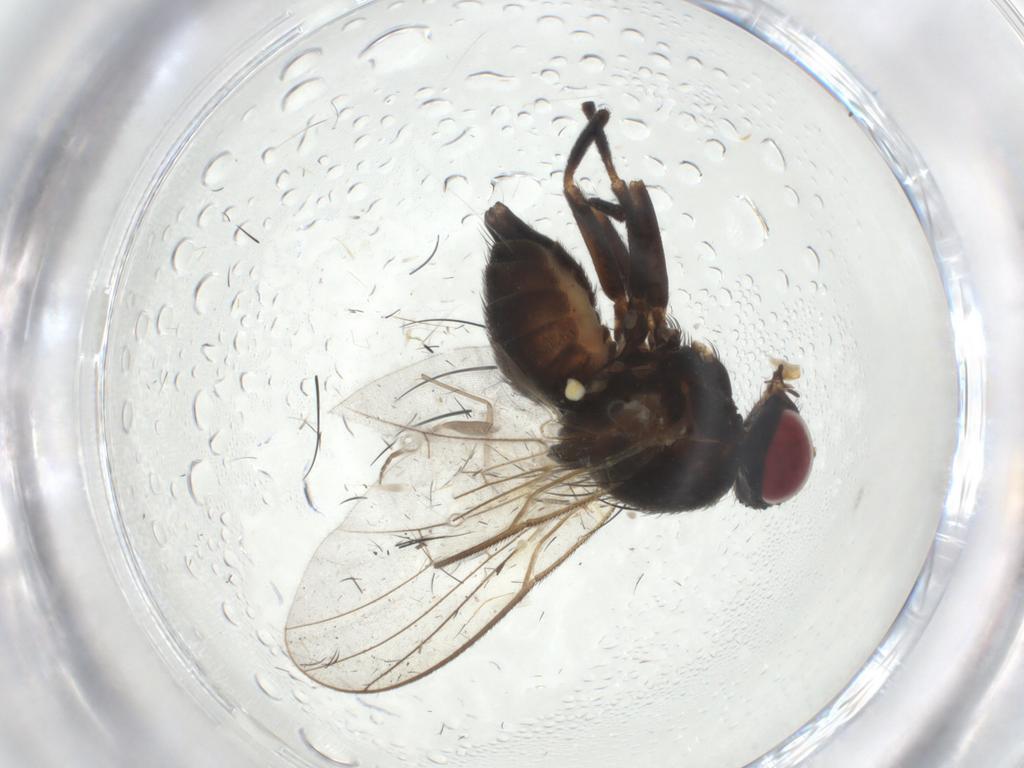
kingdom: Animalia
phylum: Arthropoda
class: Insecta
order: Diptera
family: Agromyzidae
